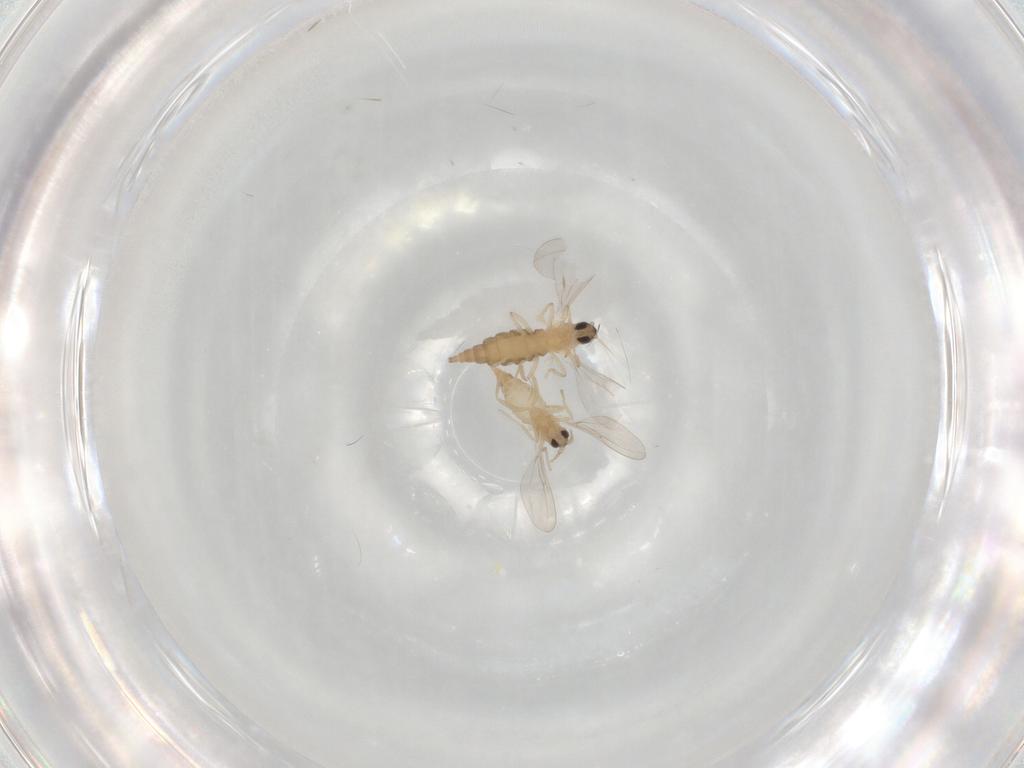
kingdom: Animalia
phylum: Arthropoda
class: Insecta
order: Diptera
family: Cecidomyiidae
